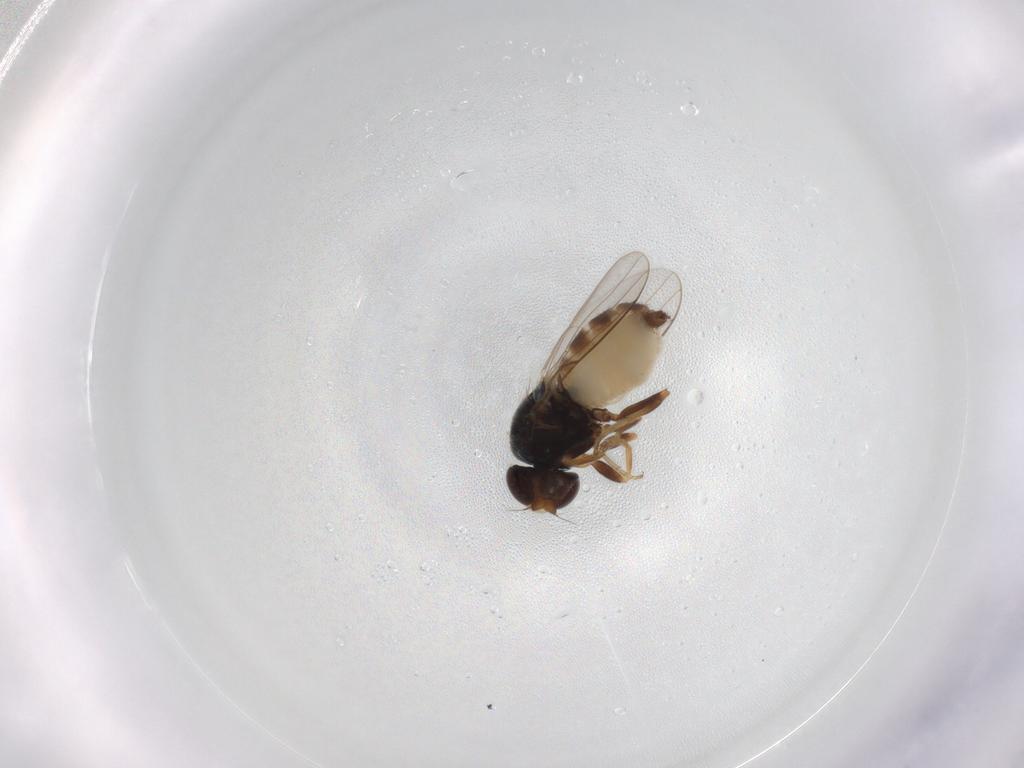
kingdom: Animalia
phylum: Arthropoda
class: Insecta
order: Diptera
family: Chloropidae
